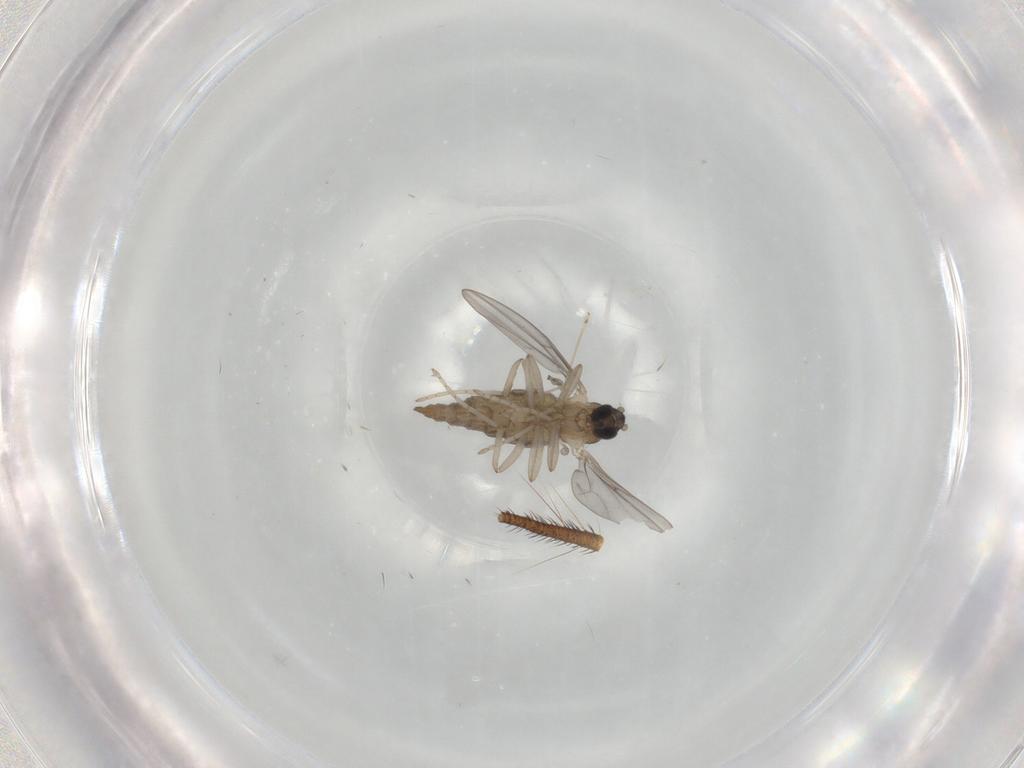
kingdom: Animalia
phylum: Arthropoda
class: Insecta
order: Diptera
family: Cecidomyiidae
